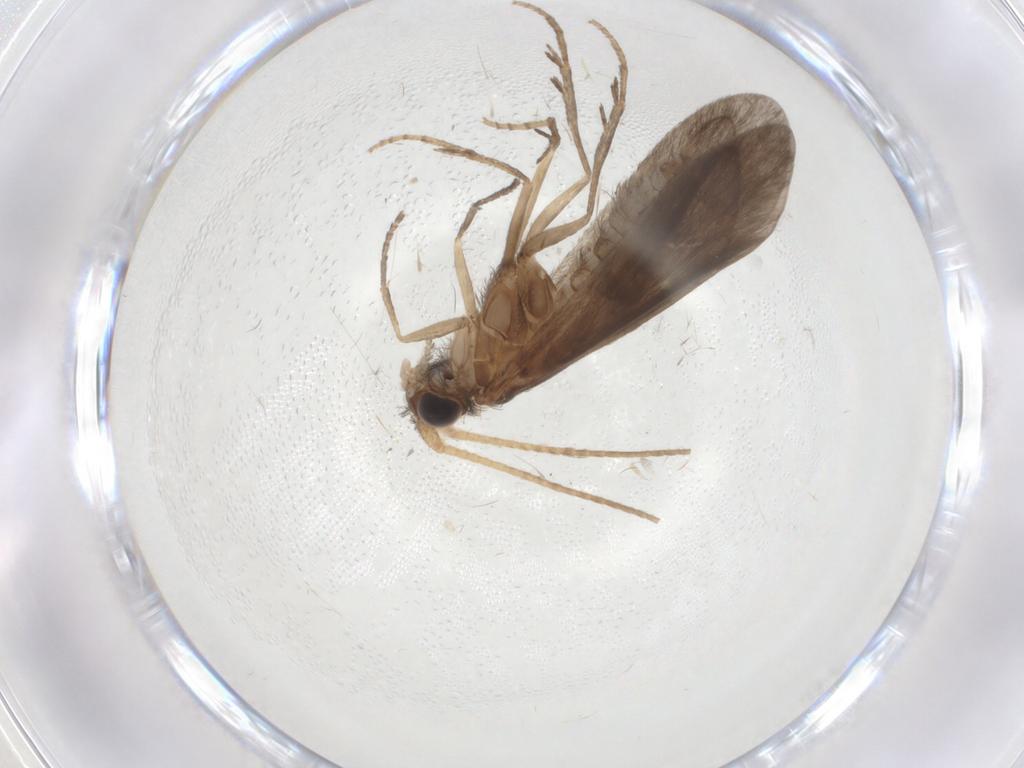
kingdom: Animalia
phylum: Arthropoda
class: Insecta
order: Trichoptera
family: Helicopsychidae
